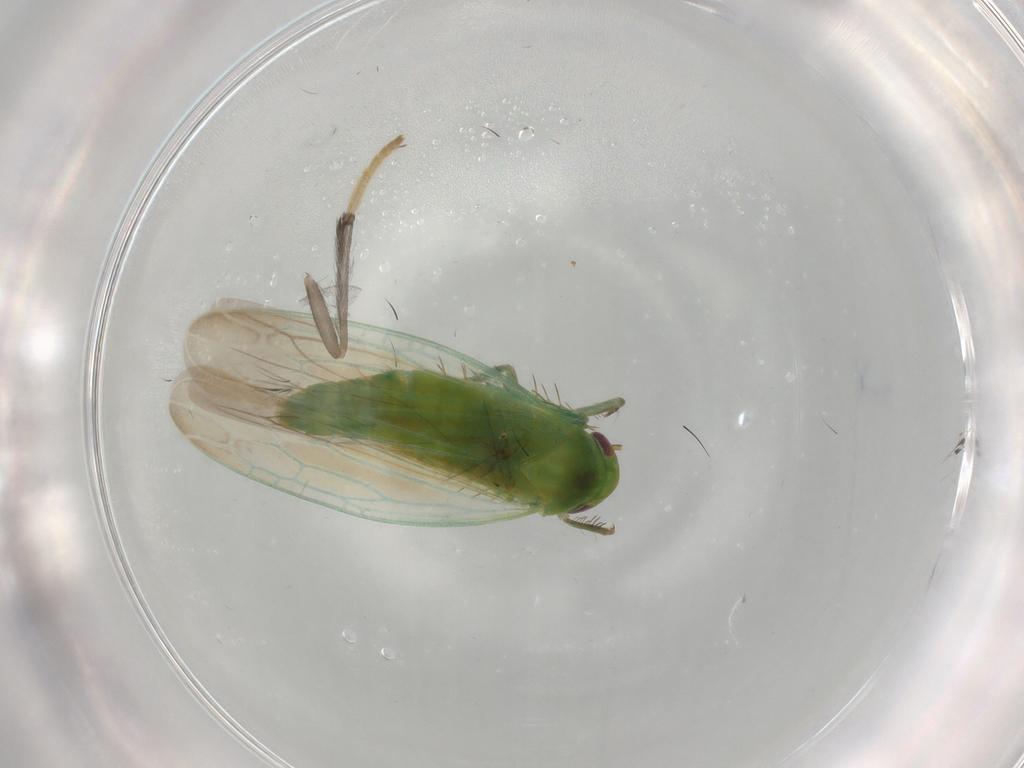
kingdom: Animalia
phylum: Arthropoda
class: Insecta
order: Hemiptera
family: Cicadellidae
